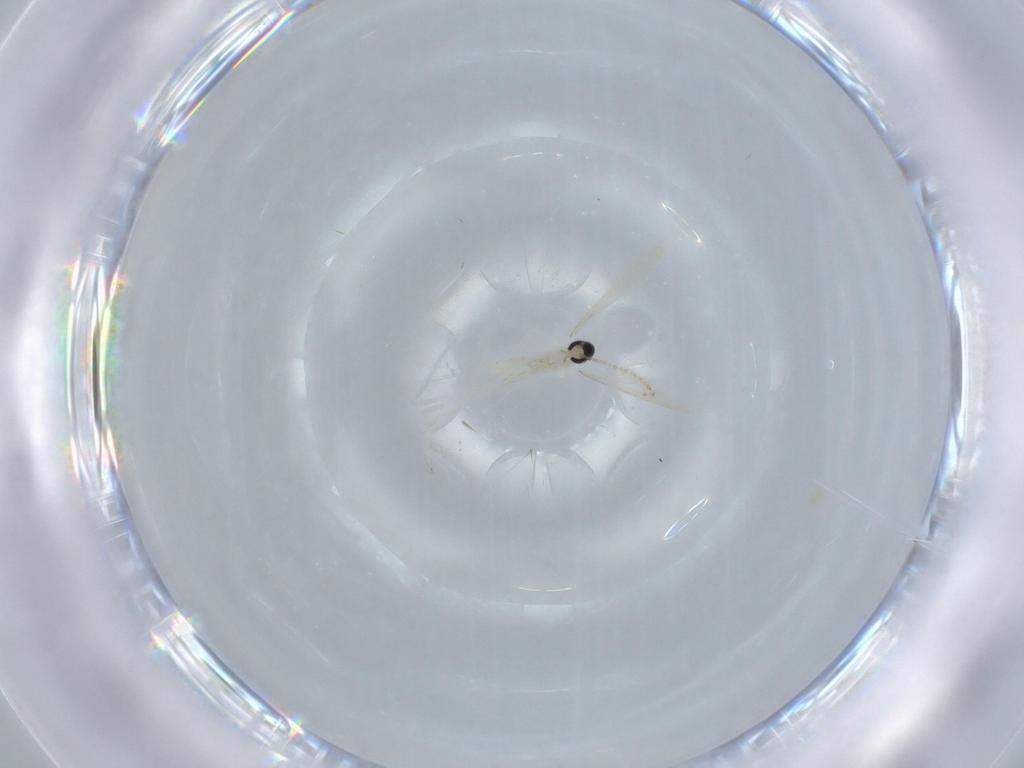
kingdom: Animalia
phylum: Arthropoda
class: Insecta
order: Diptera
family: Cecidomyiidae
